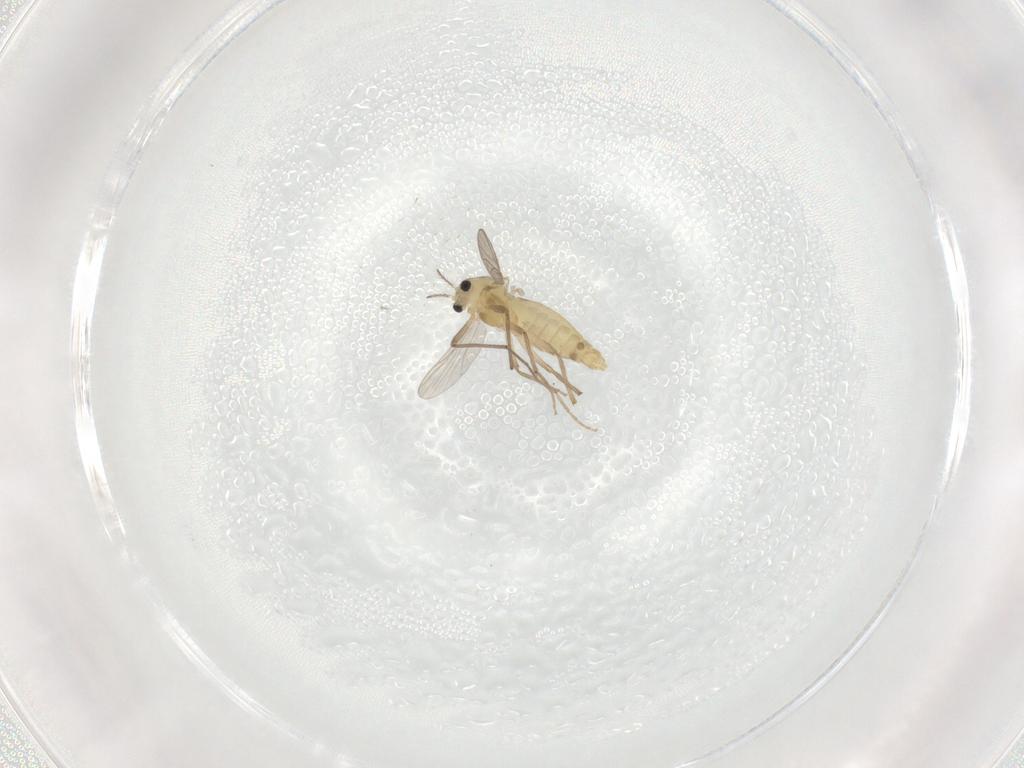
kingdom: Animalia
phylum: Arthropoda
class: Insecta
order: Diptera
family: Chironomidae
